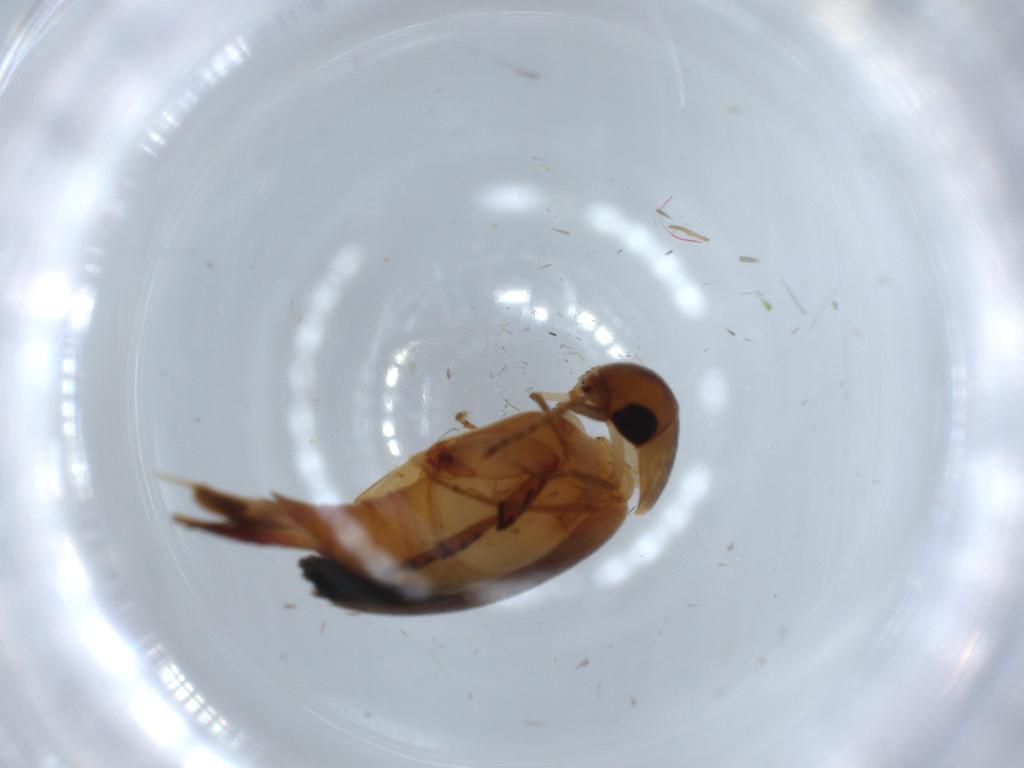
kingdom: Animalia
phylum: Arthropoda
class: Insecta
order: Coleoptera
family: Mordellidae
